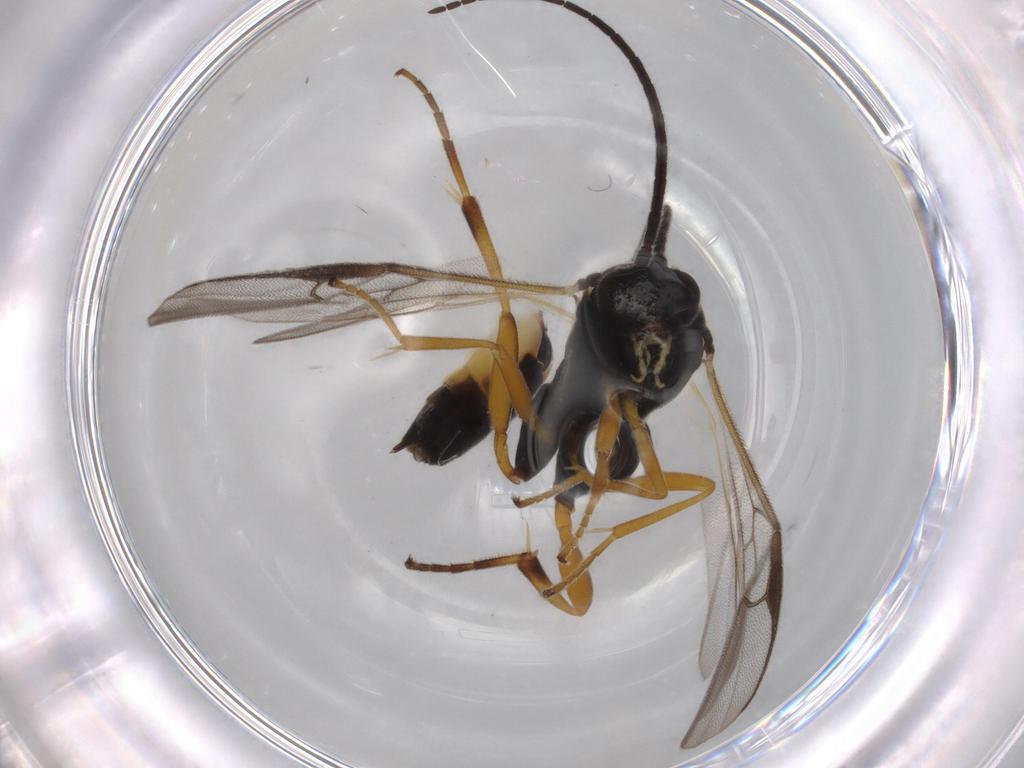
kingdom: Animalia
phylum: Arthropoda
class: Insecta
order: Hymenoptera
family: Braconidae
